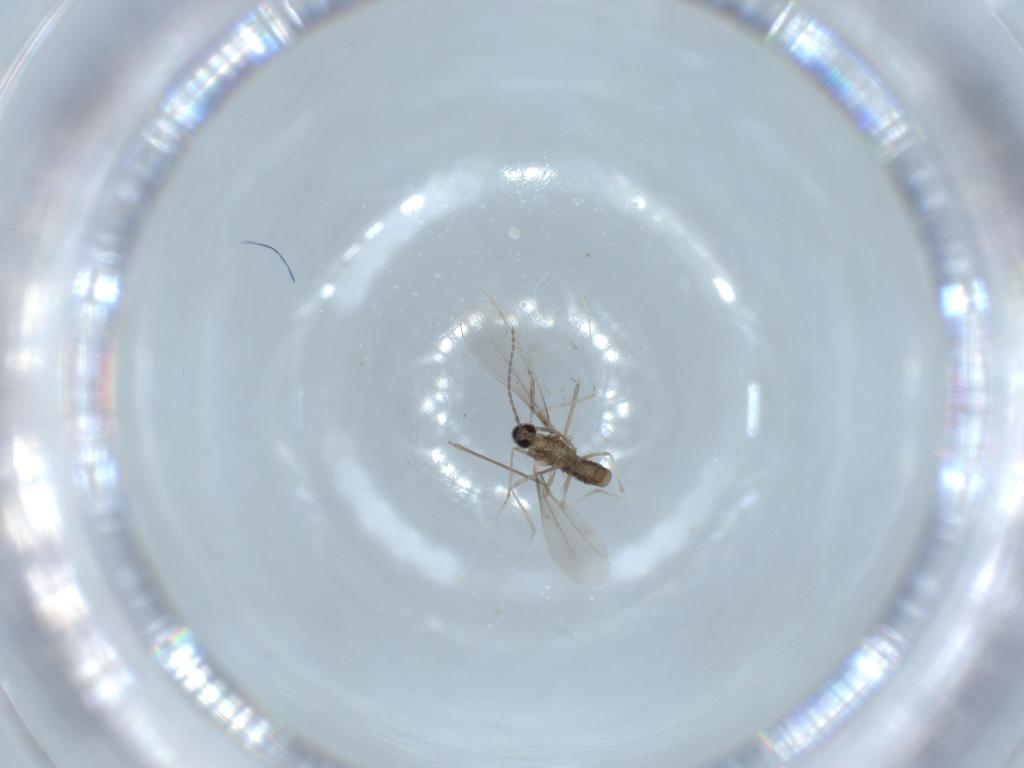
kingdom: Animalia
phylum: Arthropoda
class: Insecta
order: Diptera
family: Cecidomyiidae
